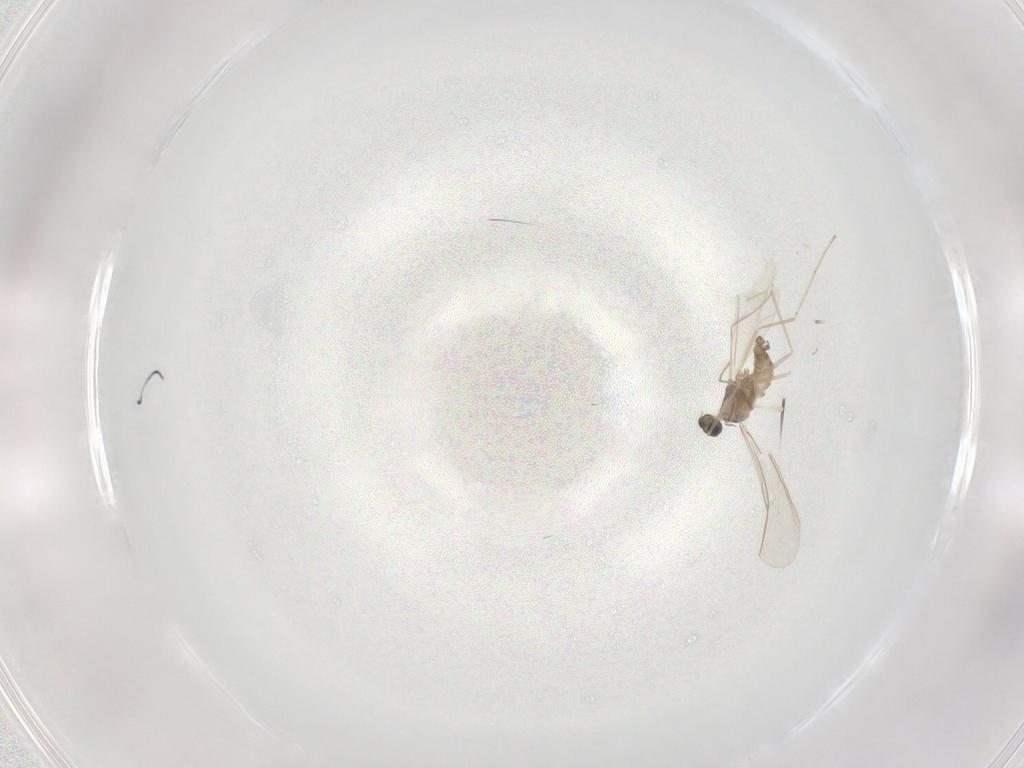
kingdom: Animalia
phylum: Arthropoda
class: Insecta
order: Diptera
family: Cecidomyiidae
